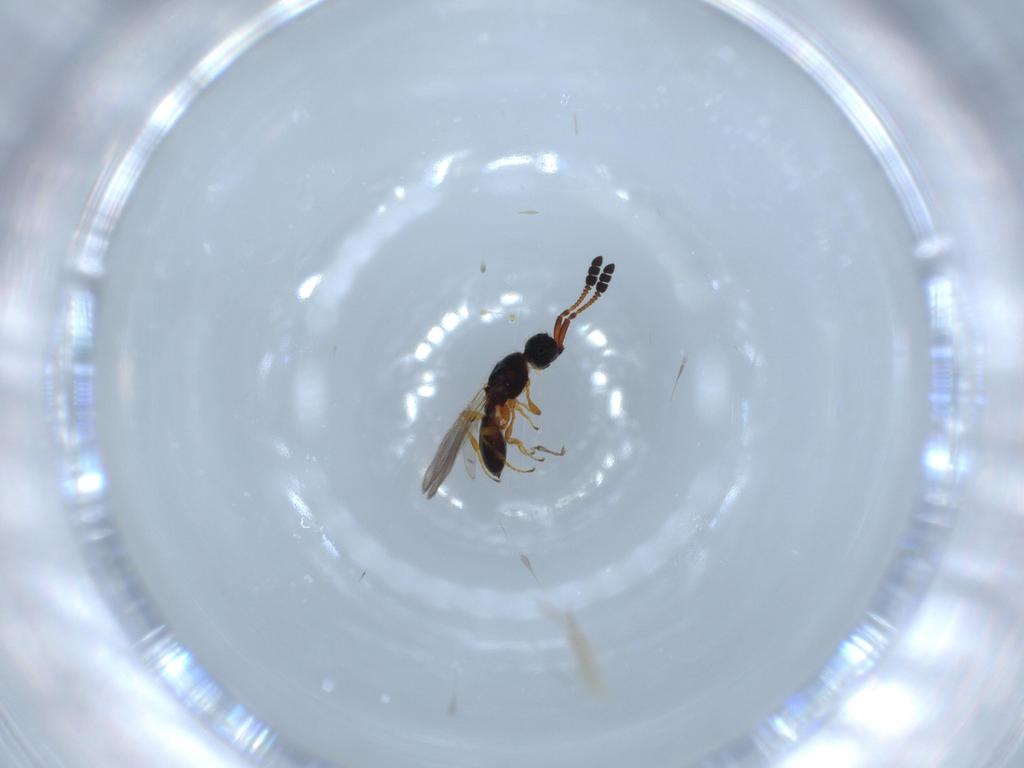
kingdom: Animalia
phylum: Arthropoda
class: Insecta
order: Hymenoptera
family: Diapriidae
